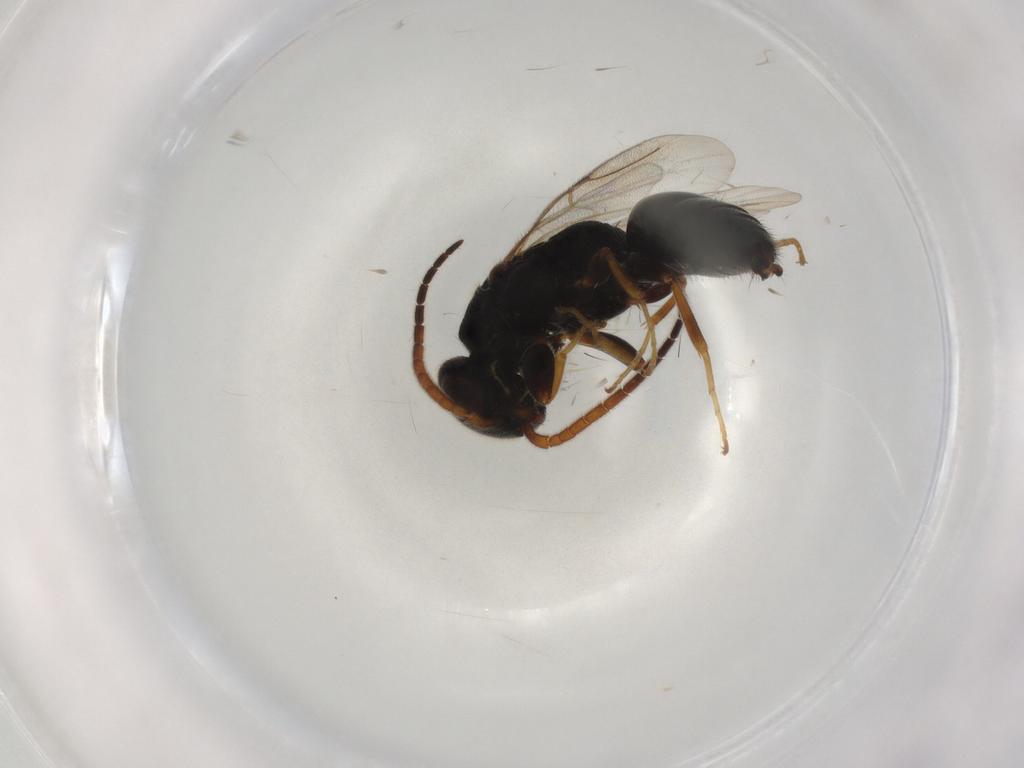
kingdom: Animalia
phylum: Arthropoda
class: Insecta
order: Hymenoptera
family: Bethylidae
